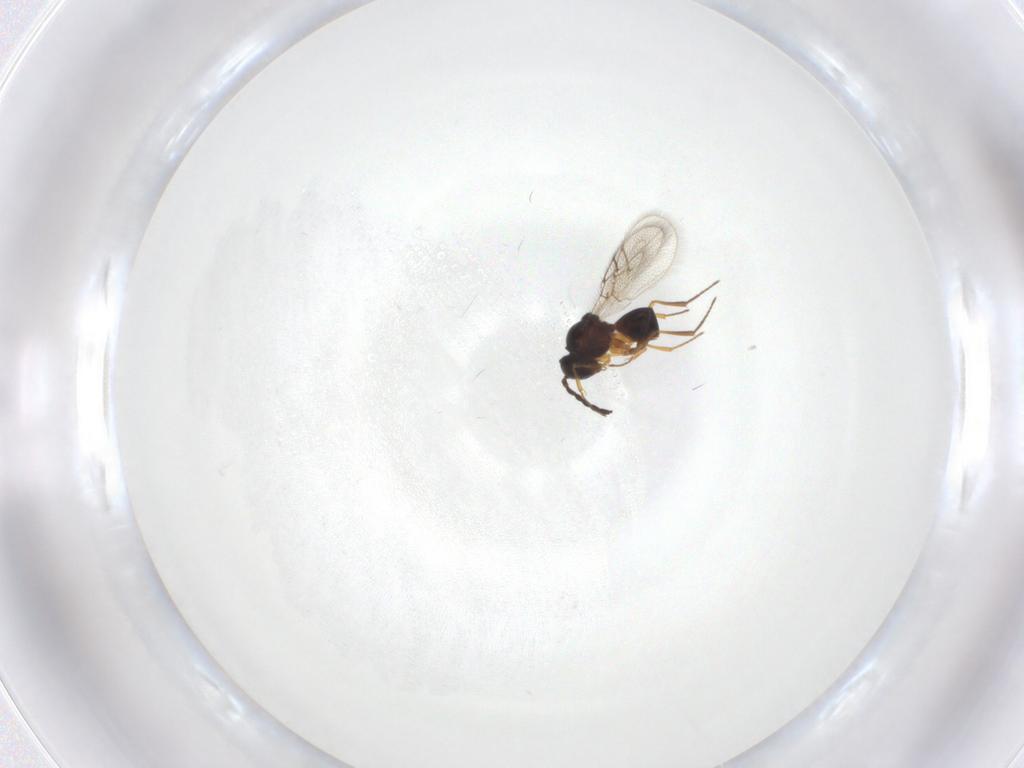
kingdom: Animalia
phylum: Arthropoda
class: Insecta
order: Hymenoptera
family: Figitidae
